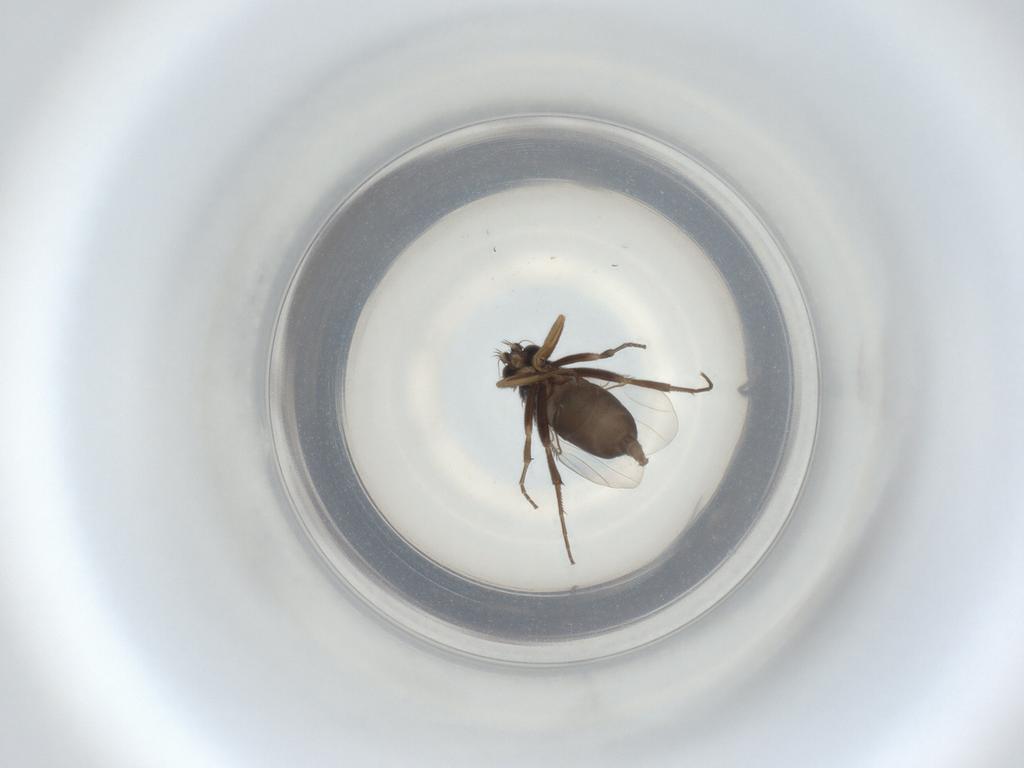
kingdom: Animalia
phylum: Arthropoda
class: Insecta
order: Diptera
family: Phoridae
